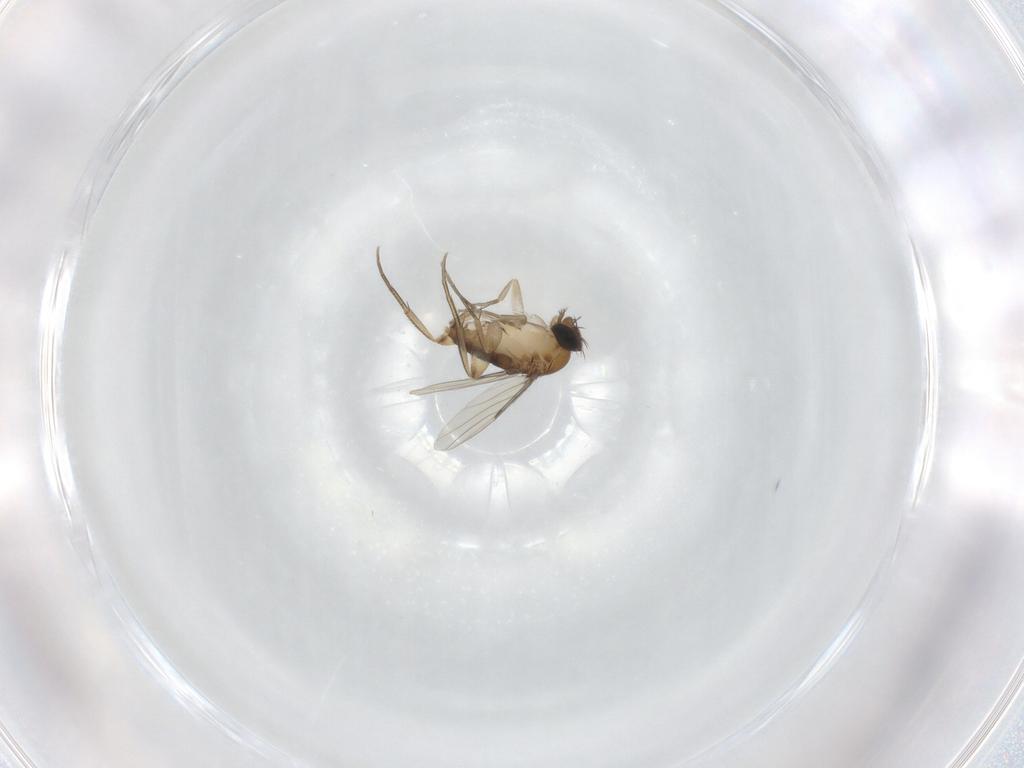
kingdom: Animalia
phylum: Arthropoda
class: Insecta
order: Diptera
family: Phoridae
